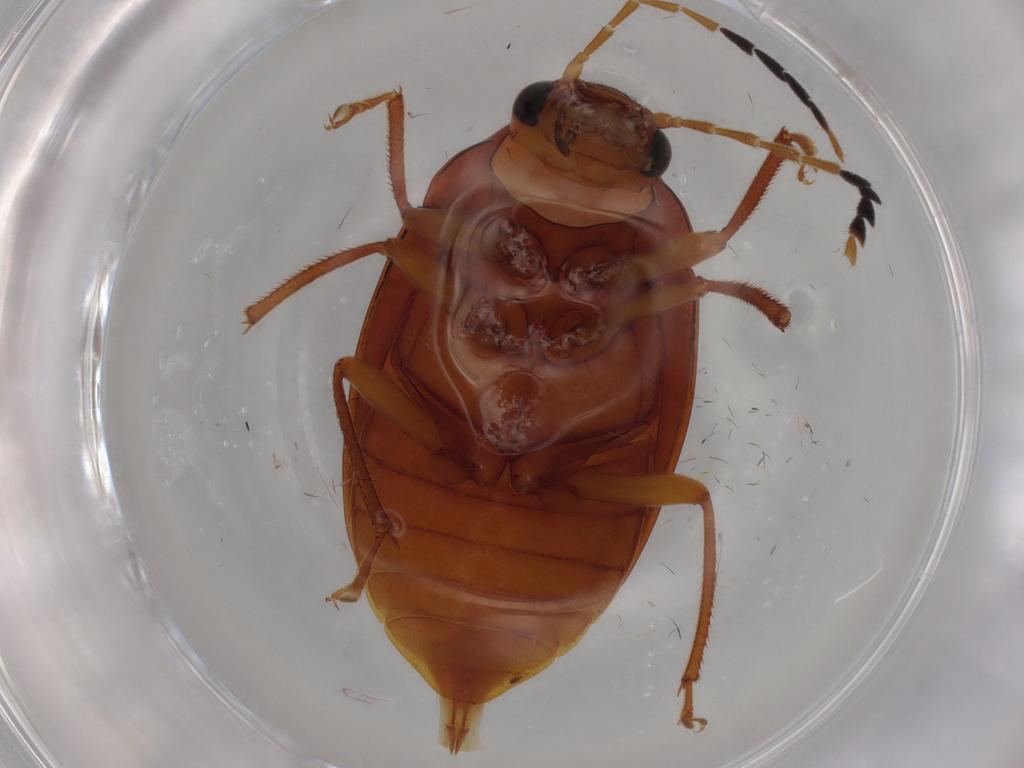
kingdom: Animalia
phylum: Arthropoda
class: Insecta
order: Coleoptera
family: Ptilodactylidae
